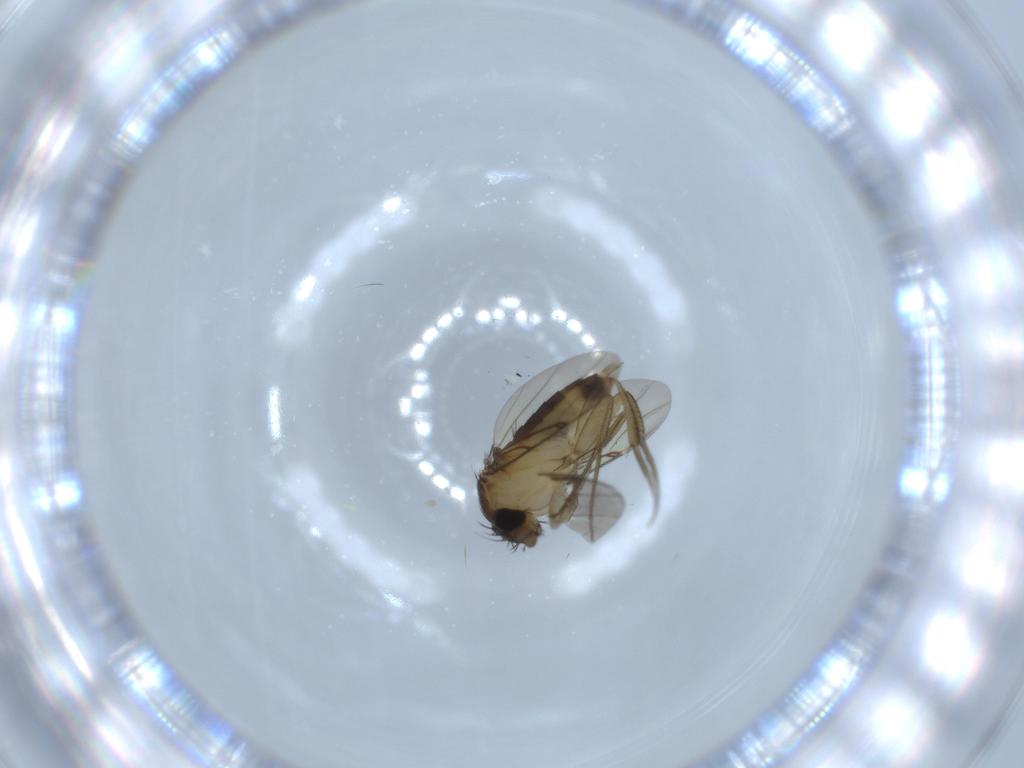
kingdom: Animalia
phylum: Arthropoda
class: Insecta
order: Diptera
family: Phoridae
